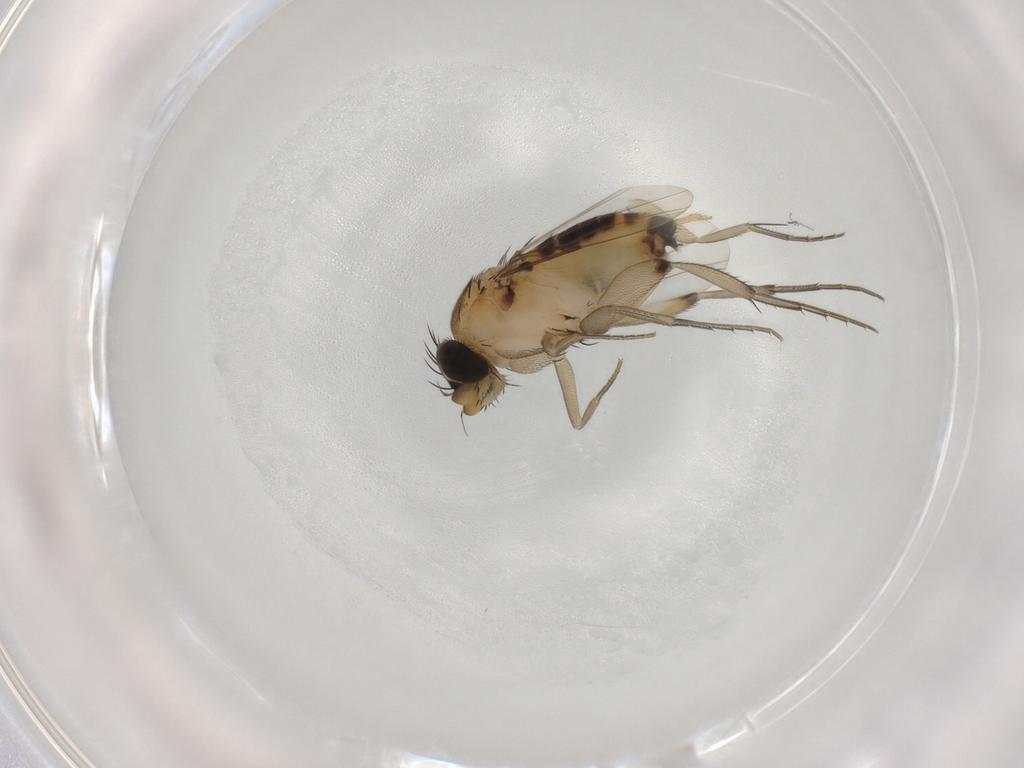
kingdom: Animalia
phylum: Arthropoda
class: Insecta
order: Diptera
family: Phoridae
